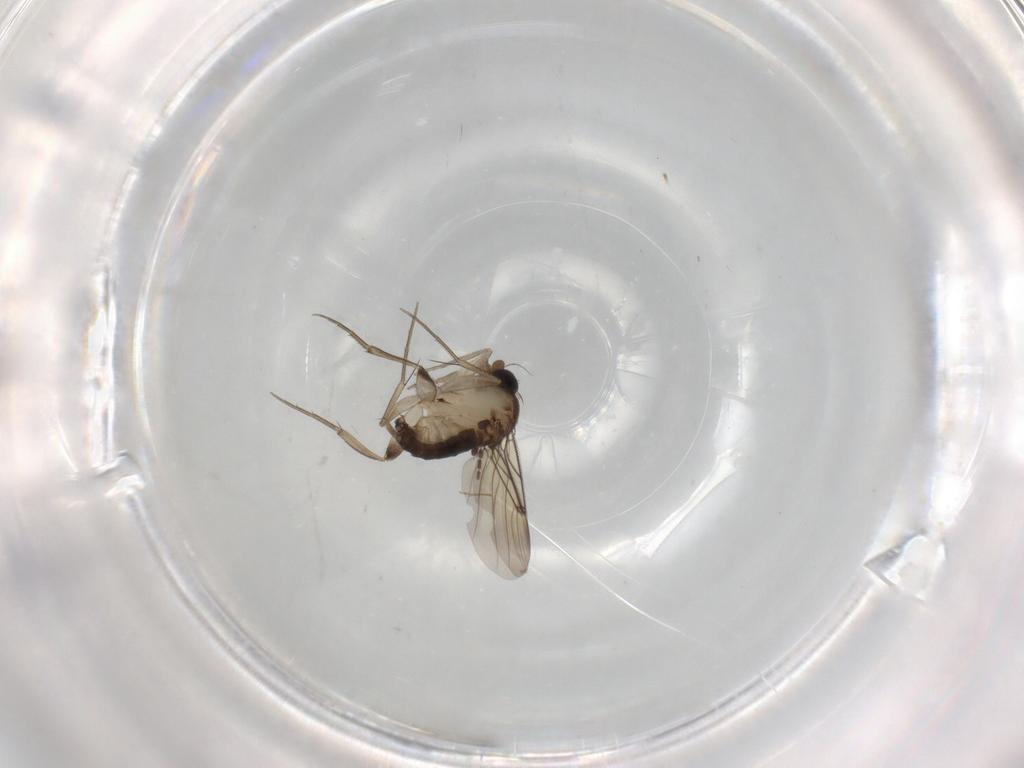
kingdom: Animalia
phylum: Arthropoda
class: Insecta
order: Diptera
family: Phoridae
